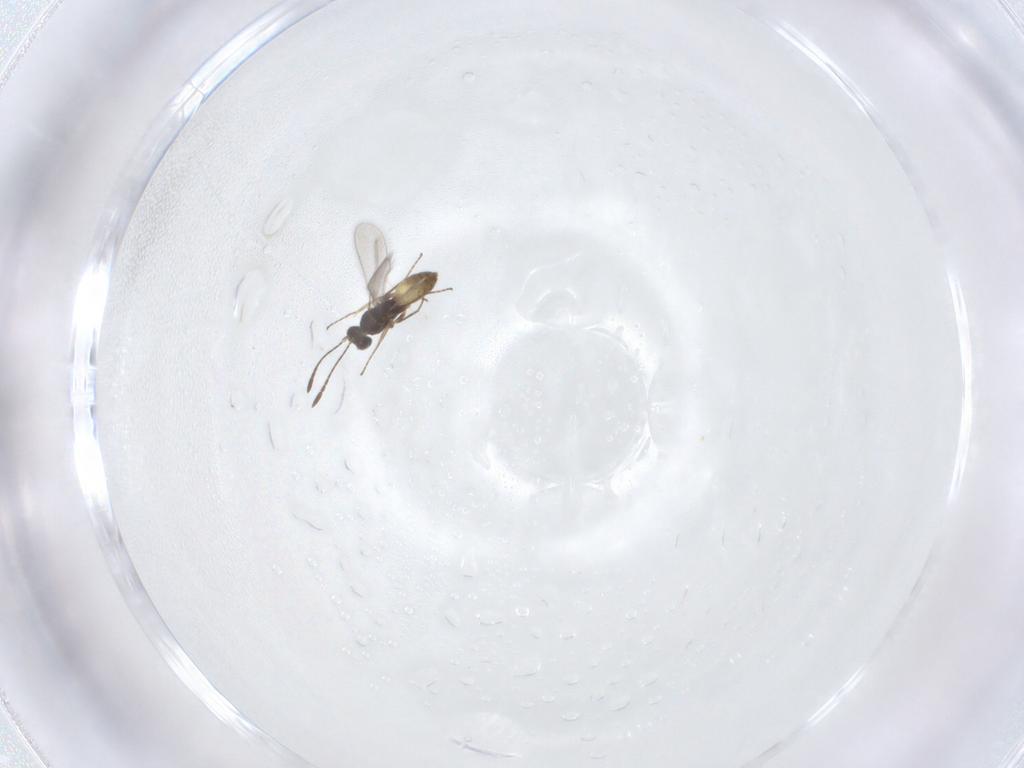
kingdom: Animalia
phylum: Arthropoda
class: Insecta
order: Hymenoptera
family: Mymaridae
